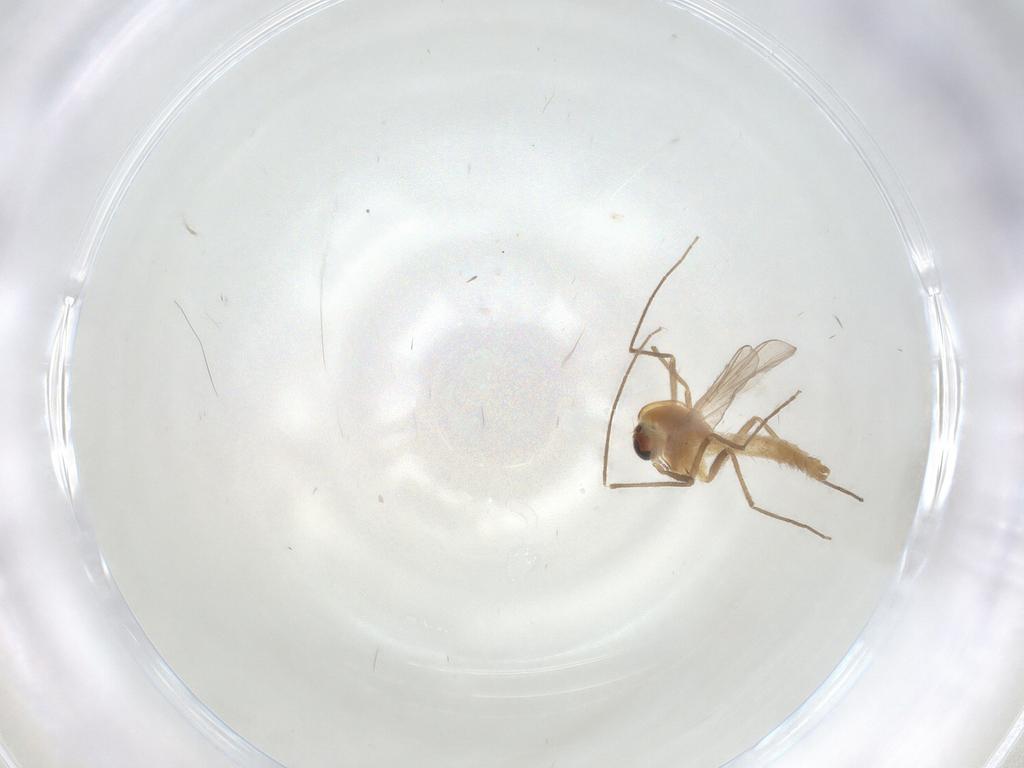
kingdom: Animalia
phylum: Arthropoda
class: Insecta
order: Diptera
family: Chironomidae
